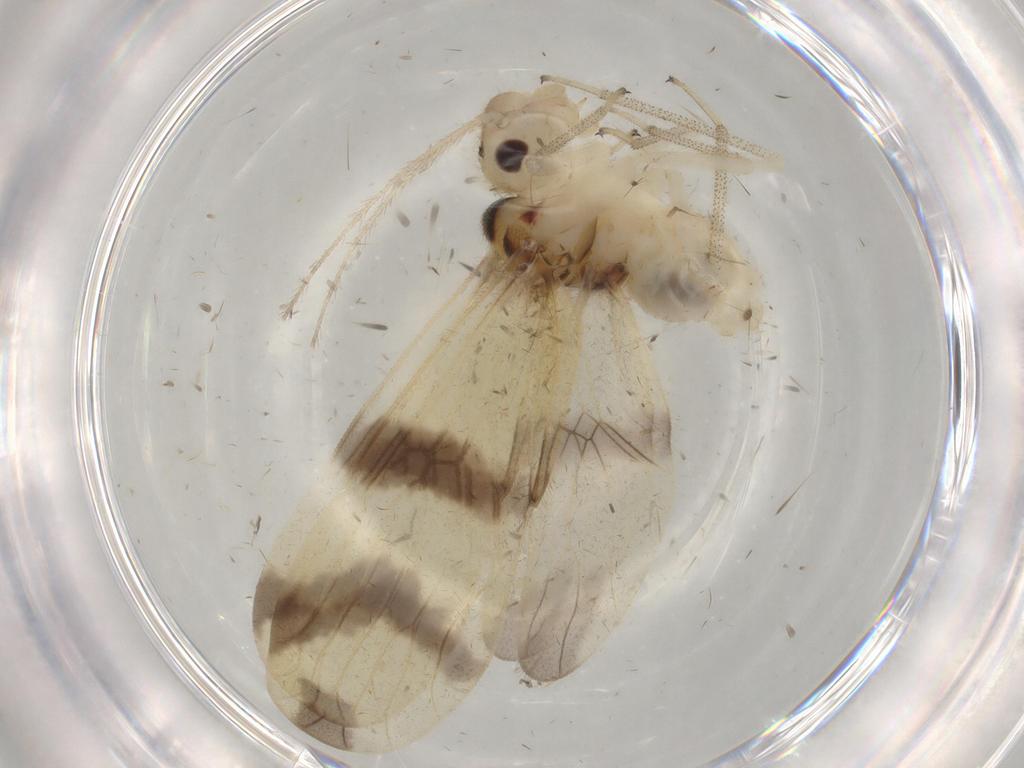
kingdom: Animalia
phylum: Arthropoda
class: Insecta
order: Psocodea
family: Amphipsocidae
